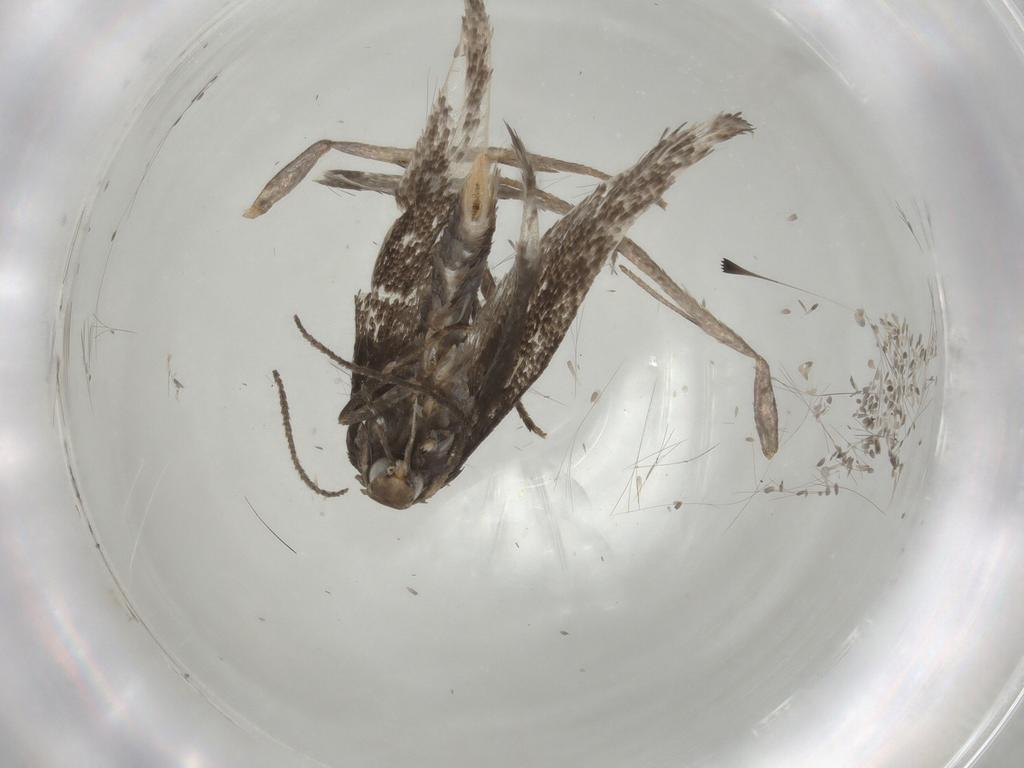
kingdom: Animalia
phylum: Arthropoda
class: Insecta
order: Lepidoptera
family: Elachistidae
